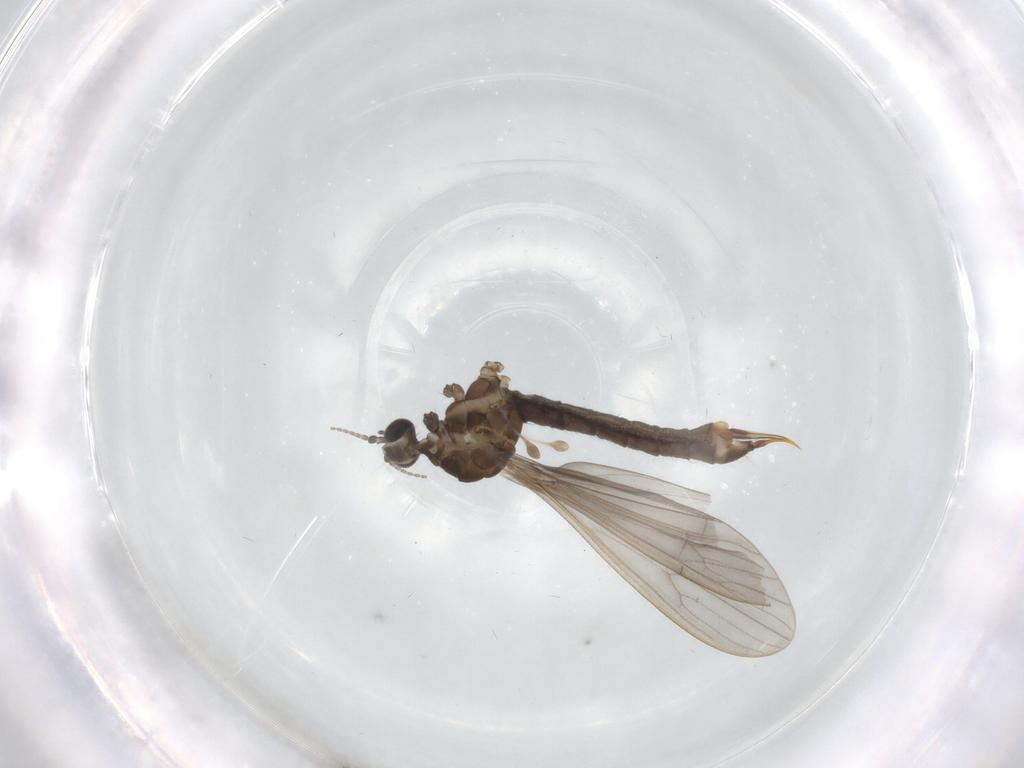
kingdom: Animalia
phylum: Arthropoda
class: Insecta
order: Diptera
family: Limoniidae
